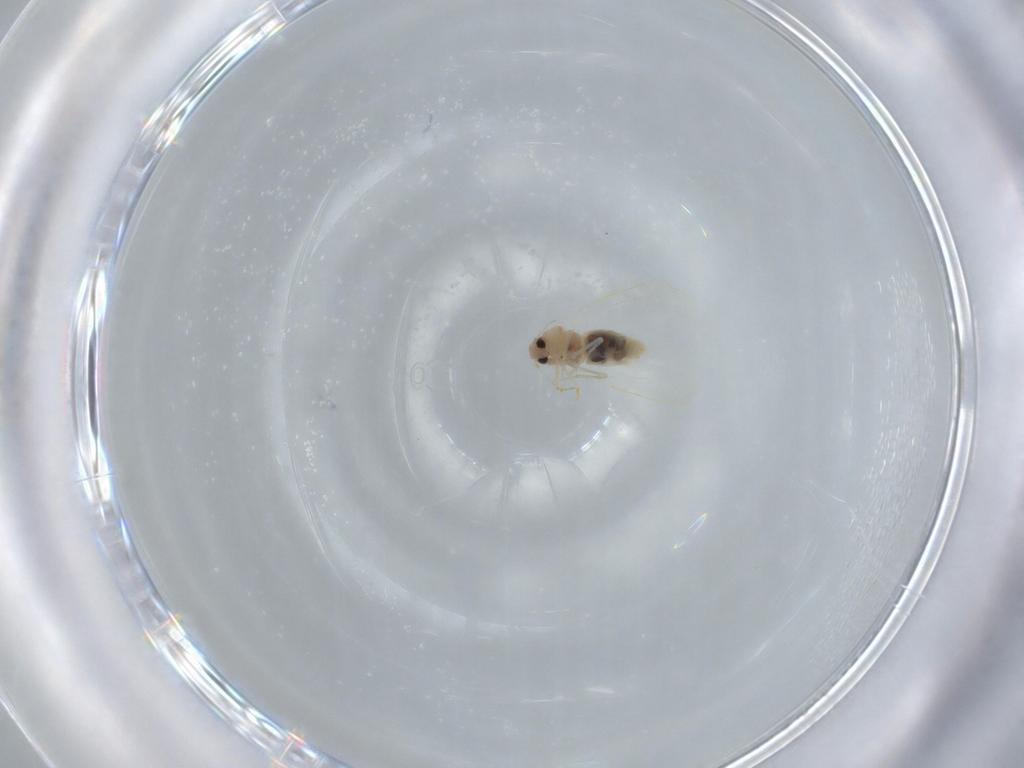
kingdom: Animalia
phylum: Arthropoda
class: Insecta
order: Hemiptera
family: Aleyrodidae
